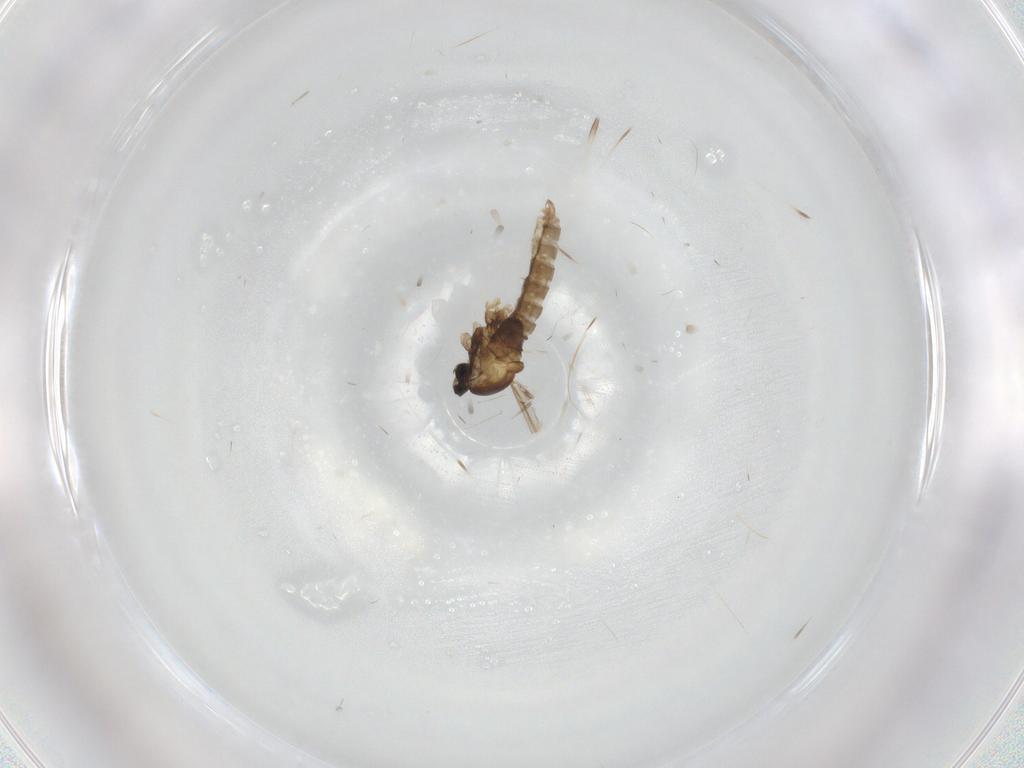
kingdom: Animalia
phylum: Arthropoda
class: Insecta
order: Diptera
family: Cecidomyiidae
